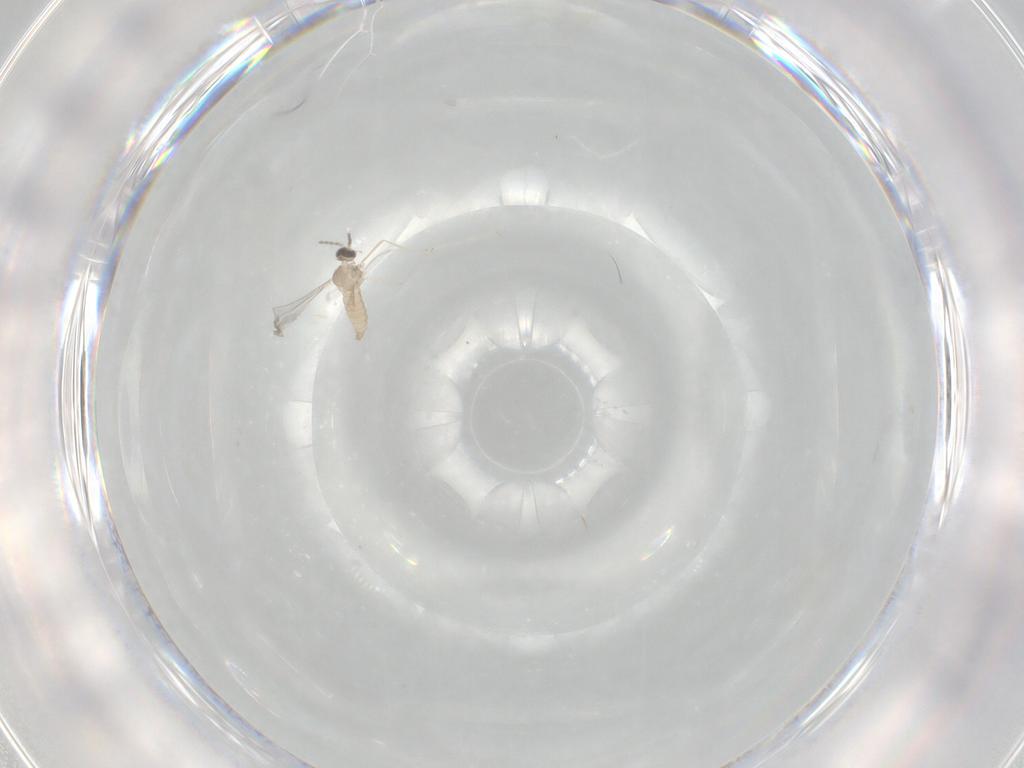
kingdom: Animalia
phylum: Arthropoda
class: Insecta
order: Diptera
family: Cecidomyiidae
